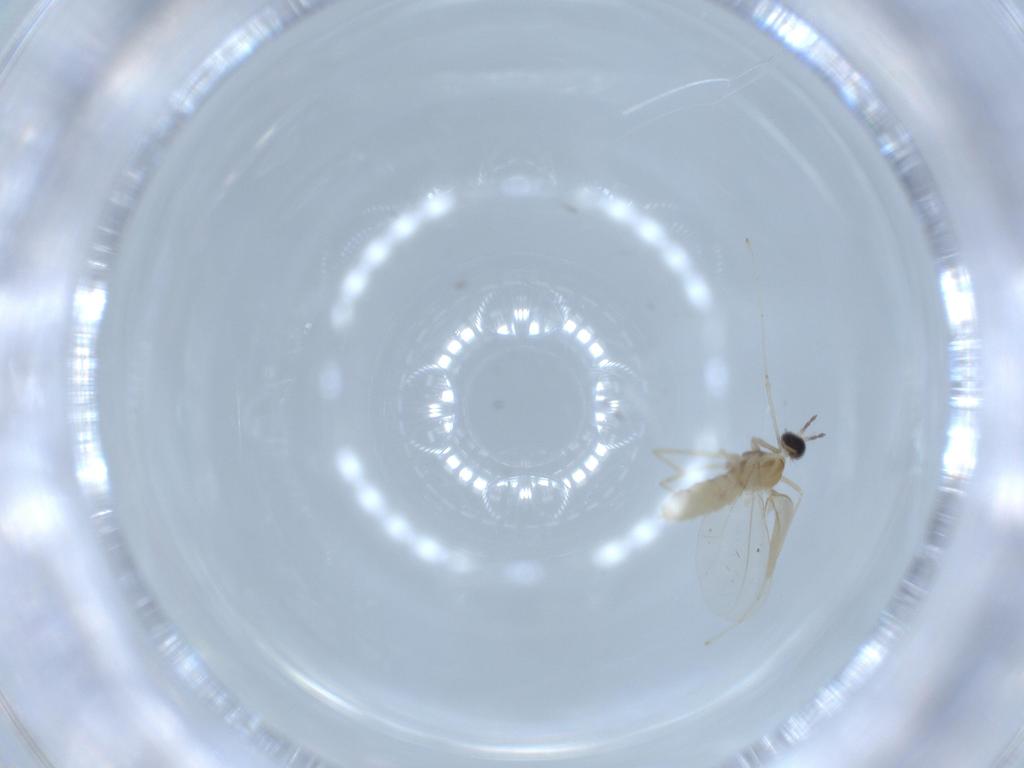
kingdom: Animalia
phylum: Arthropoda
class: Insecta
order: Diptera
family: Cecidomyiidae
